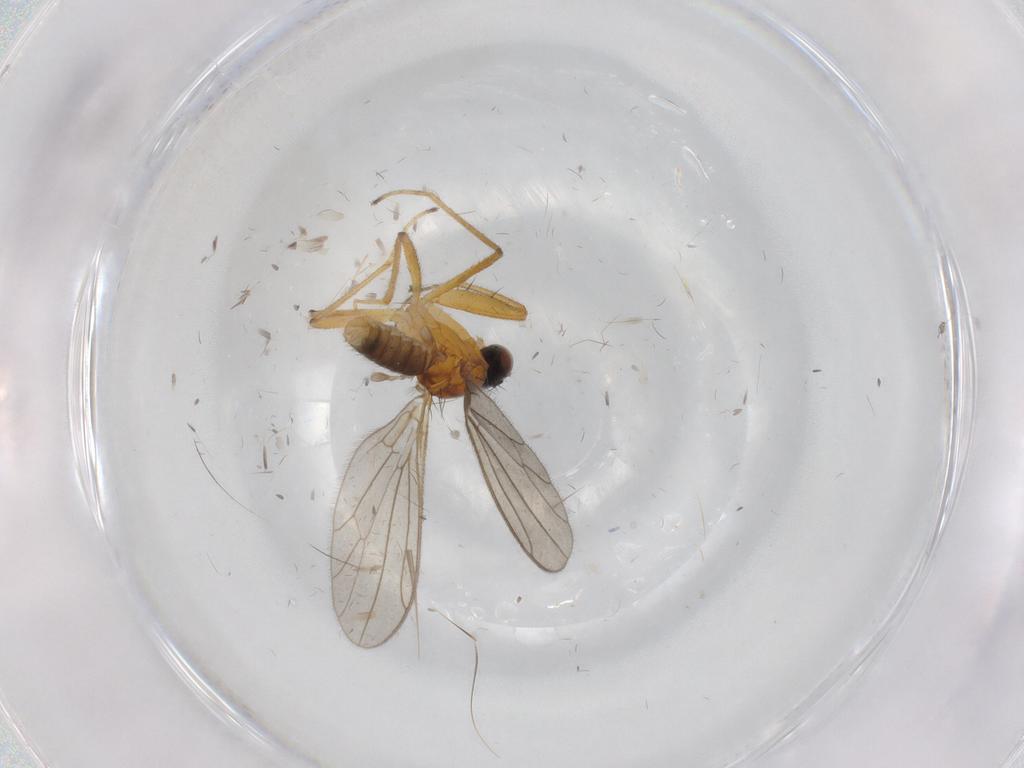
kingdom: Animalia
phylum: Arthropoda
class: Insecta
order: Diptera
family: Empididae
